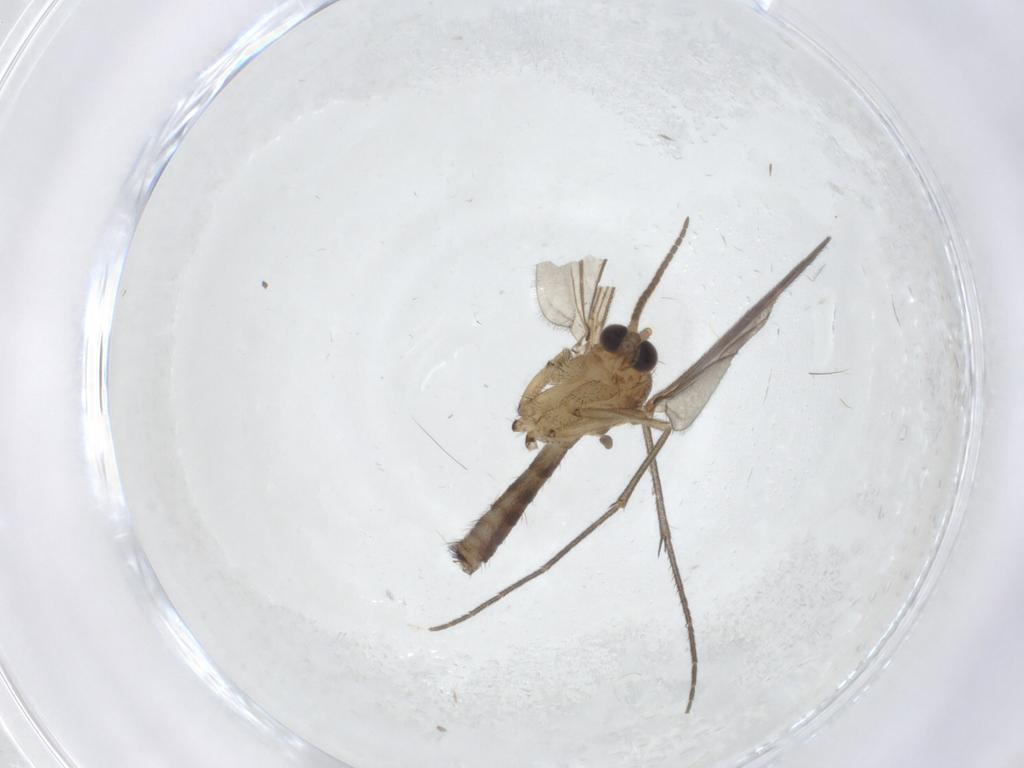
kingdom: Animalia
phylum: Arthropoda
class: Insecta
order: Diptera
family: Mycetophilidae
